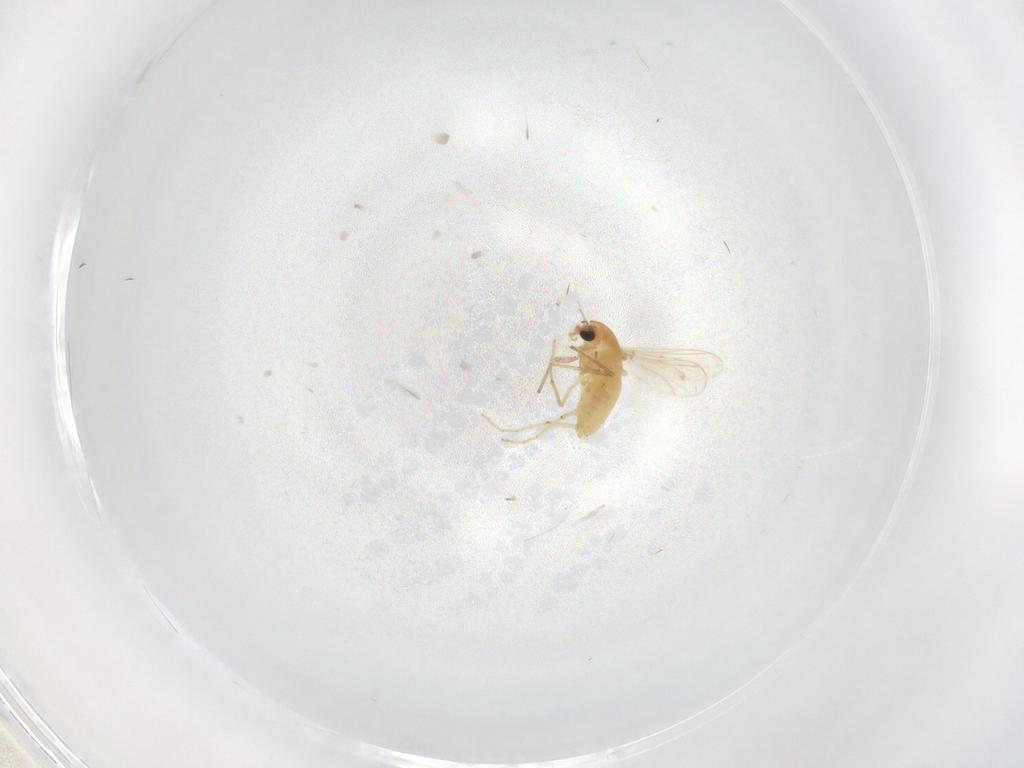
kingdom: Animalia
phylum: Arthropoda
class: Insecta
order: Diptera
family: Chironomidae
